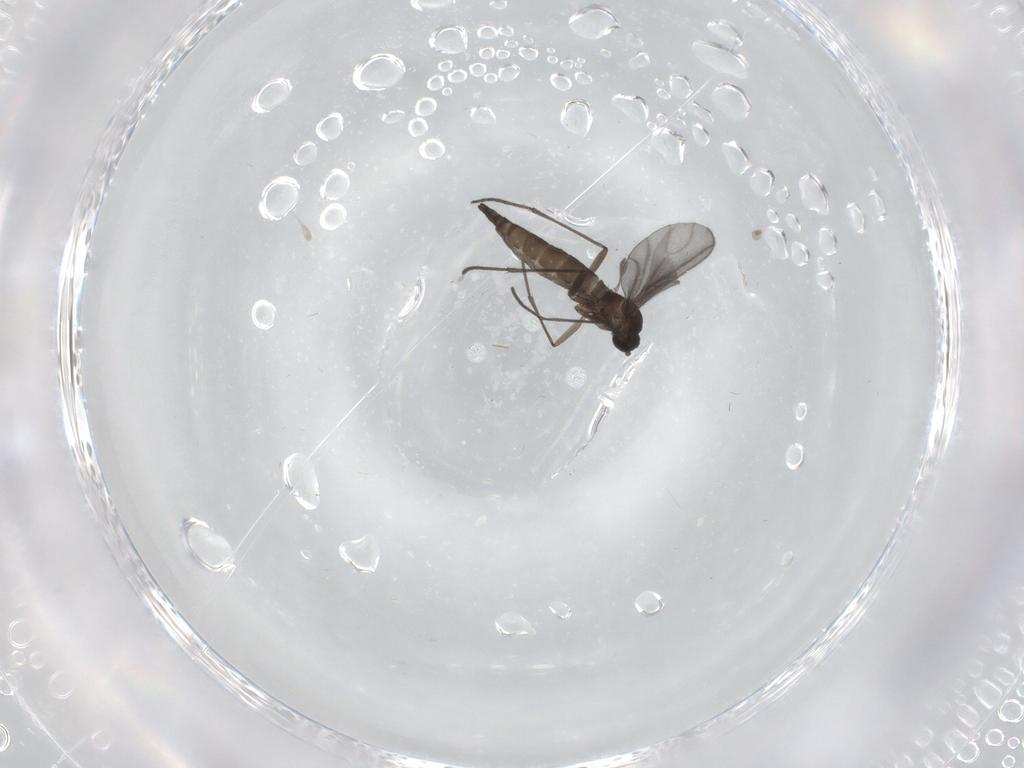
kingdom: Animalia
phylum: Arthropoda
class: Insecta
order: Diptera
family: Sciaridae
